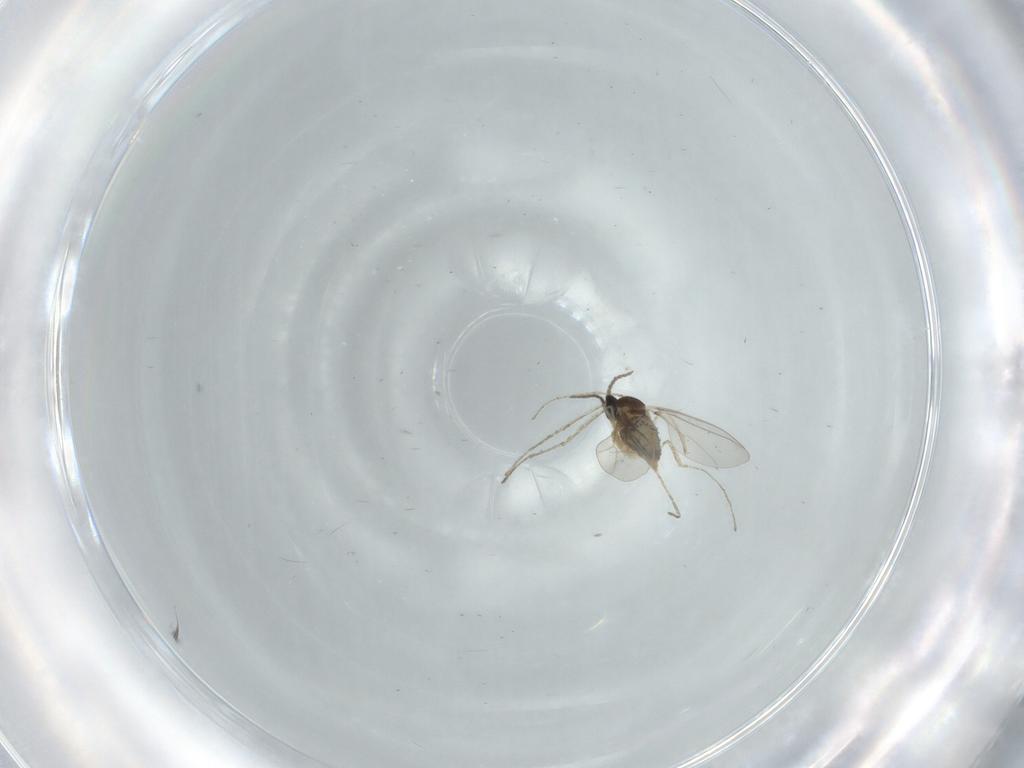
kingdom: Animalia
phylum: Arthropoda
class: Insecta
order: Diptera
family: Cecidomyiidae
